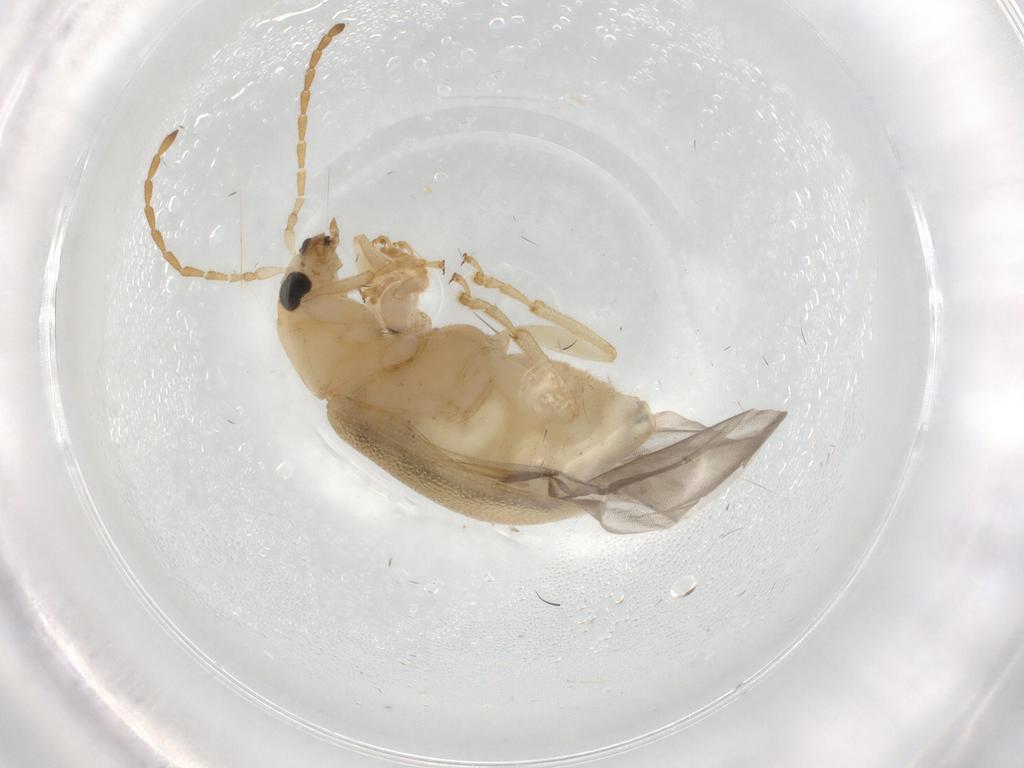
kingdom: Animalia
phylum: Arthropoda
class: Insecta
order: Coleoptera
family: Chrysomelidae
